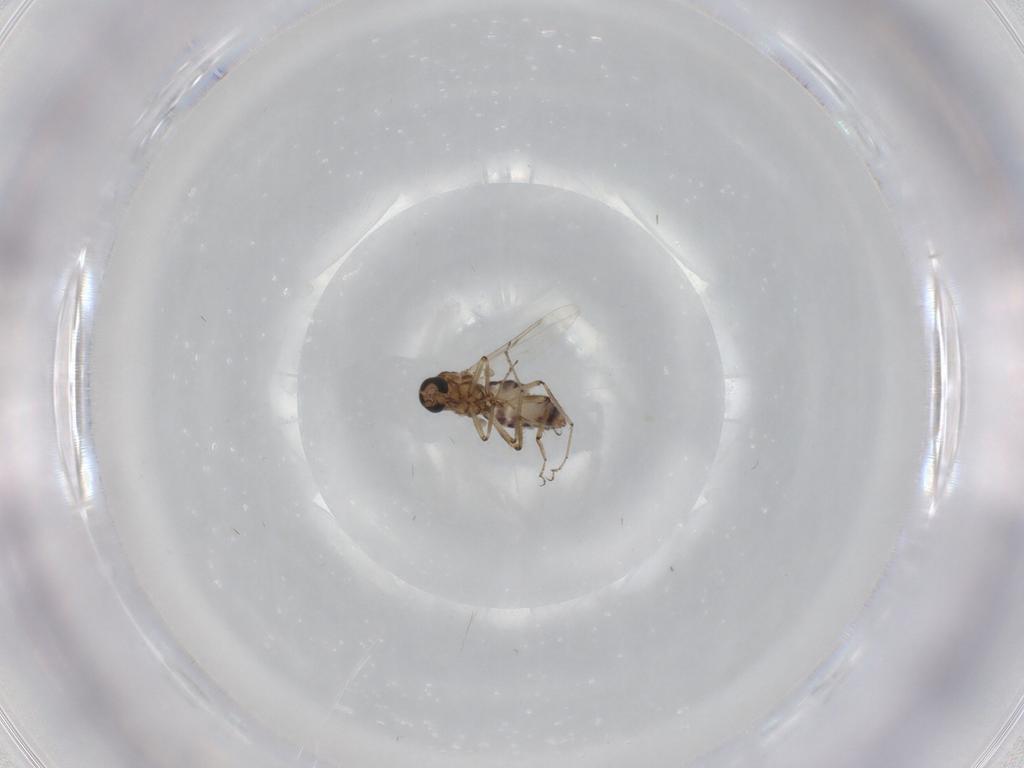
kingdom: Animalia
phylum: Arthropoda
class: Insecta
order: Diptera
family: Ceratopogonidae
